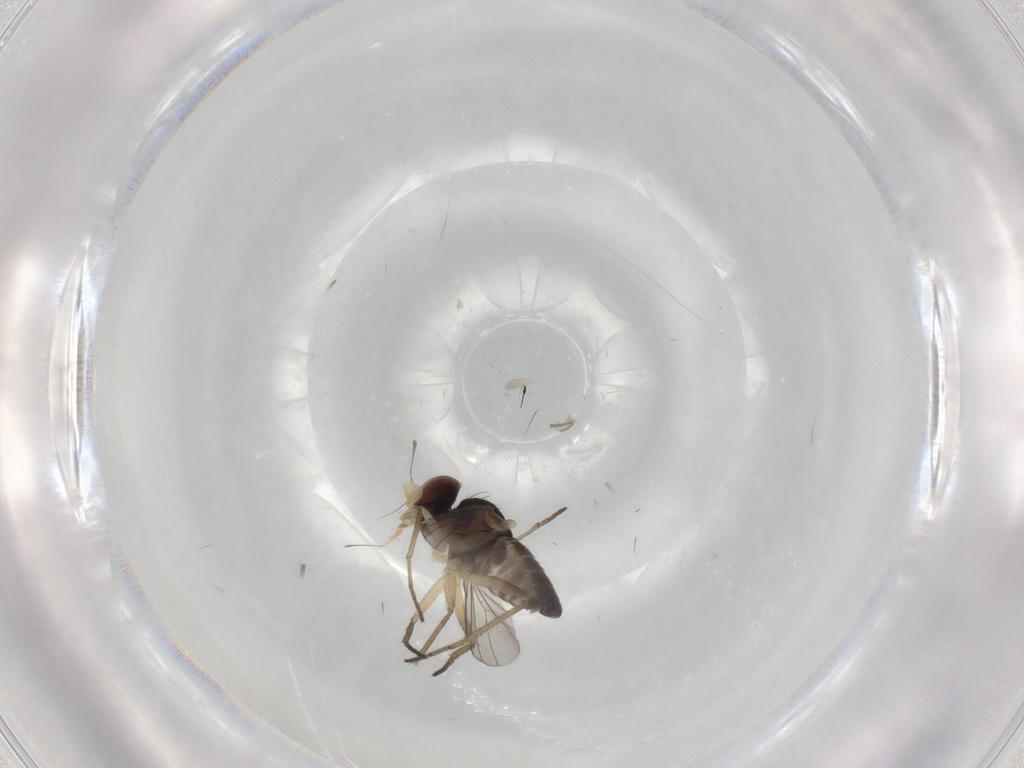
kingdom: Animalia
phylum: Arthropoda
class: Insecta
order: Diptera
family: Dolichopodidae
